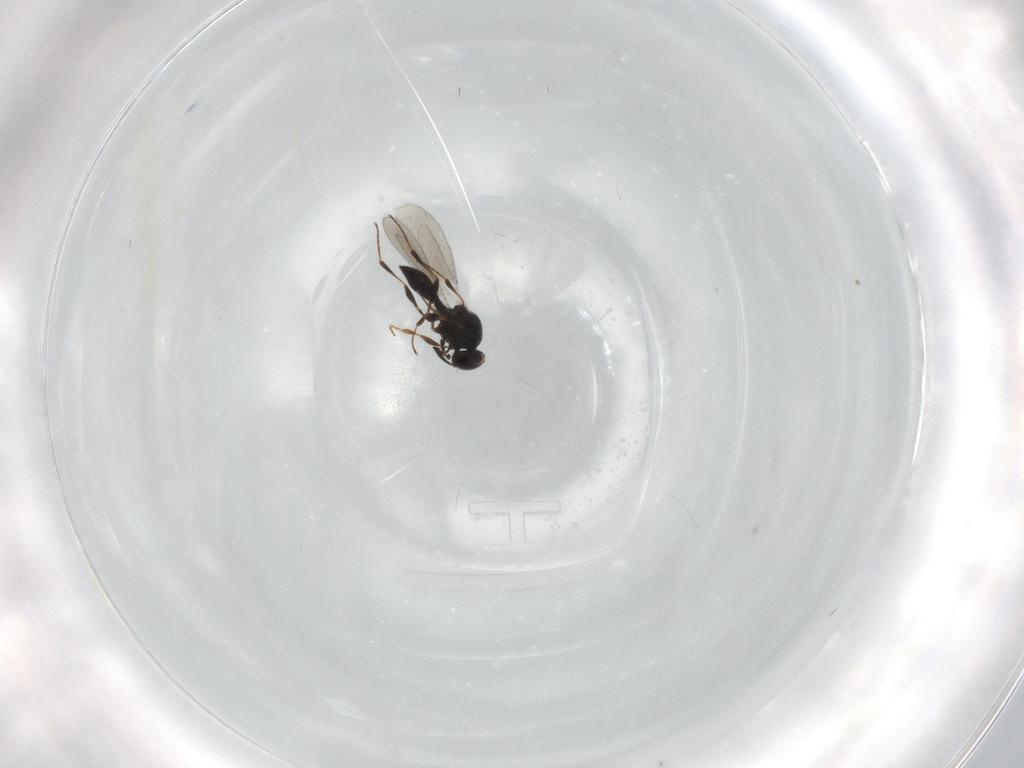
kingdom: Animalia
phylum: Arthropoda
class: Insecta
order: Hymenoptera
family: Platygastridae
